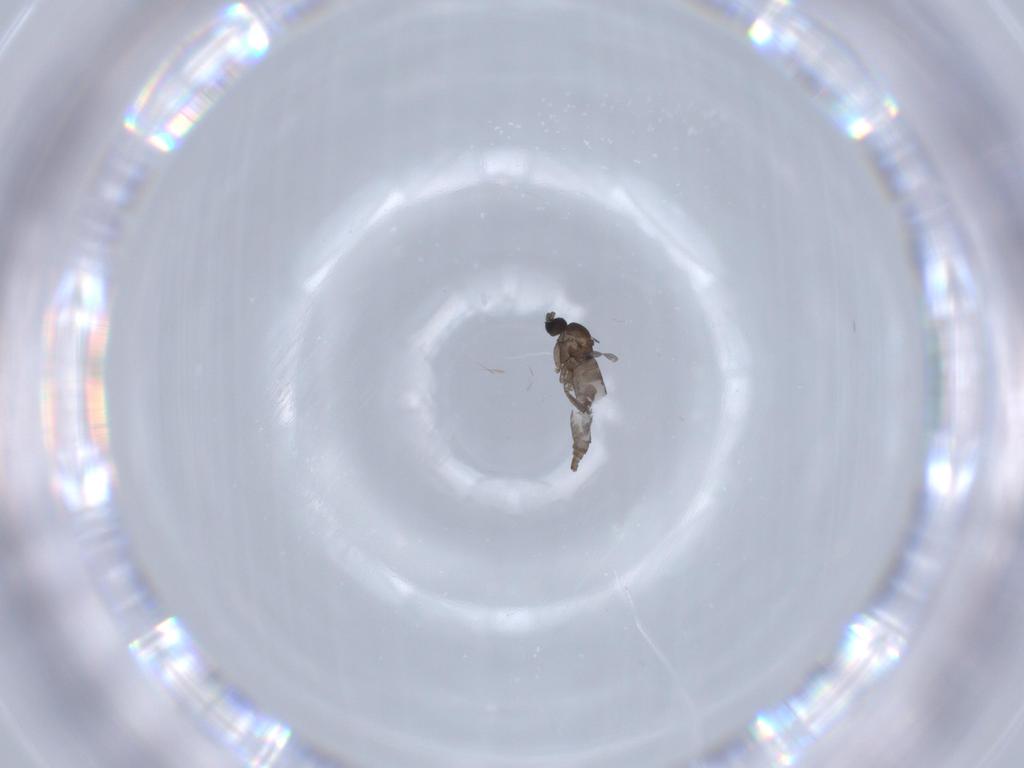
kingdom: Animalia
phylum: Arthropoda
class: Insecta
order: Diptera
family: Sciaridae
